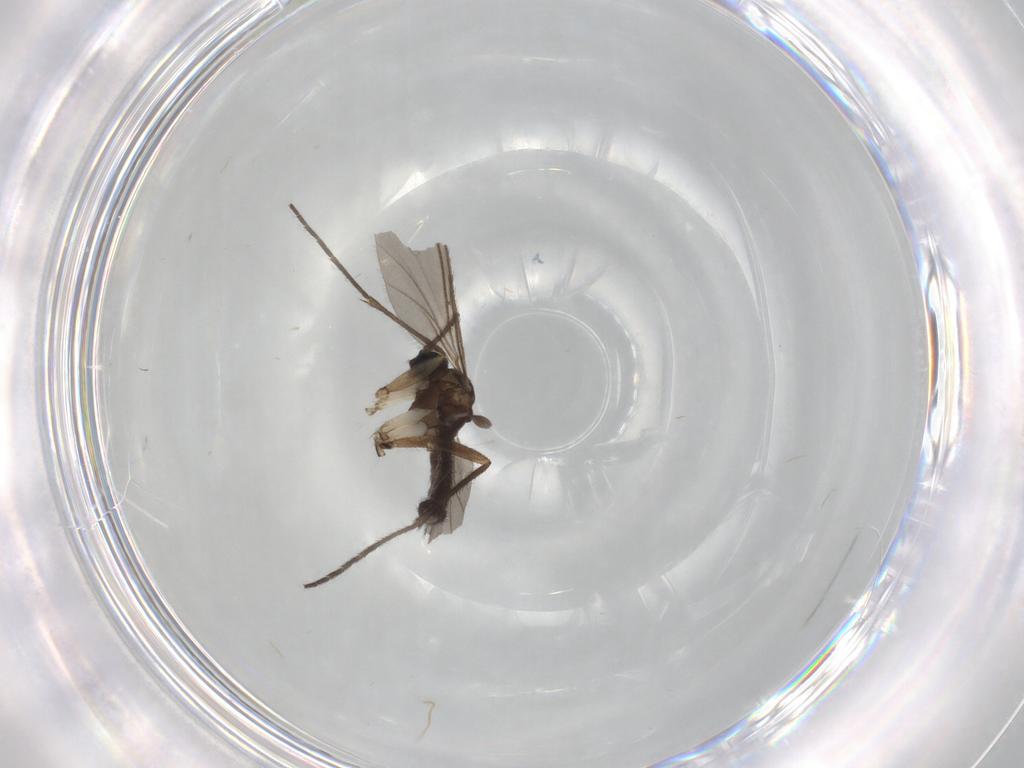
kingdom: Animalia
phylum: Arthropoda
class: Insecta
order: Diptera
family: Sciaridae
